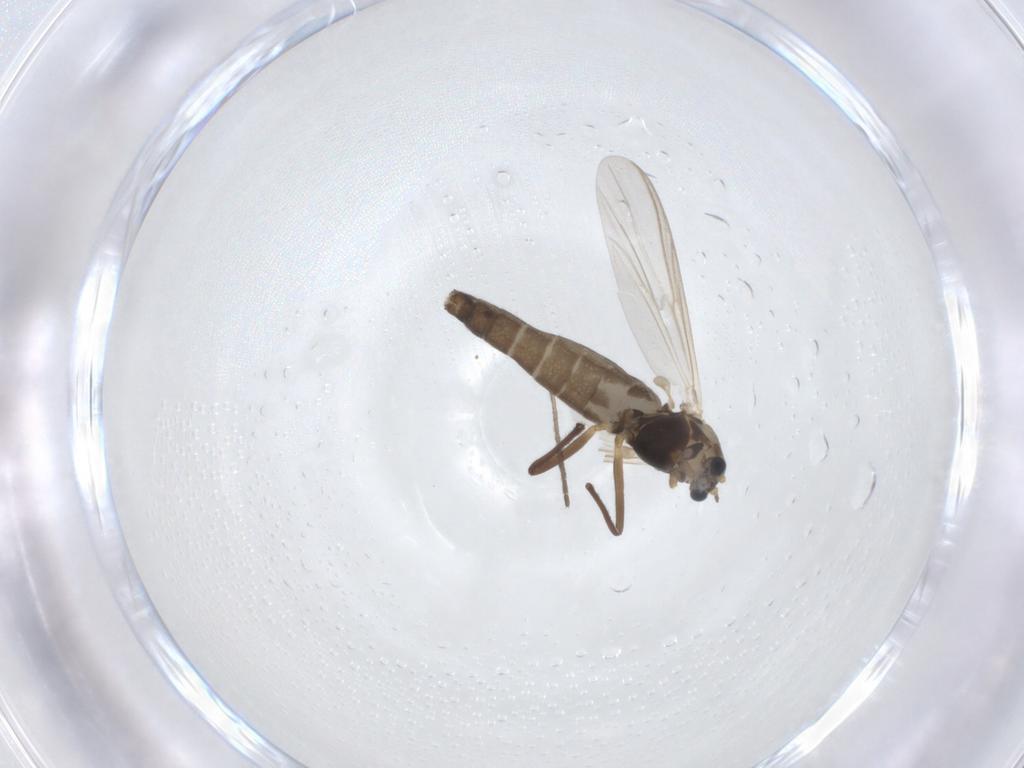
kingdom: Animalia
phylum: Arthropoda
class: Insecta
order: Diptera
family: Chironomidae
